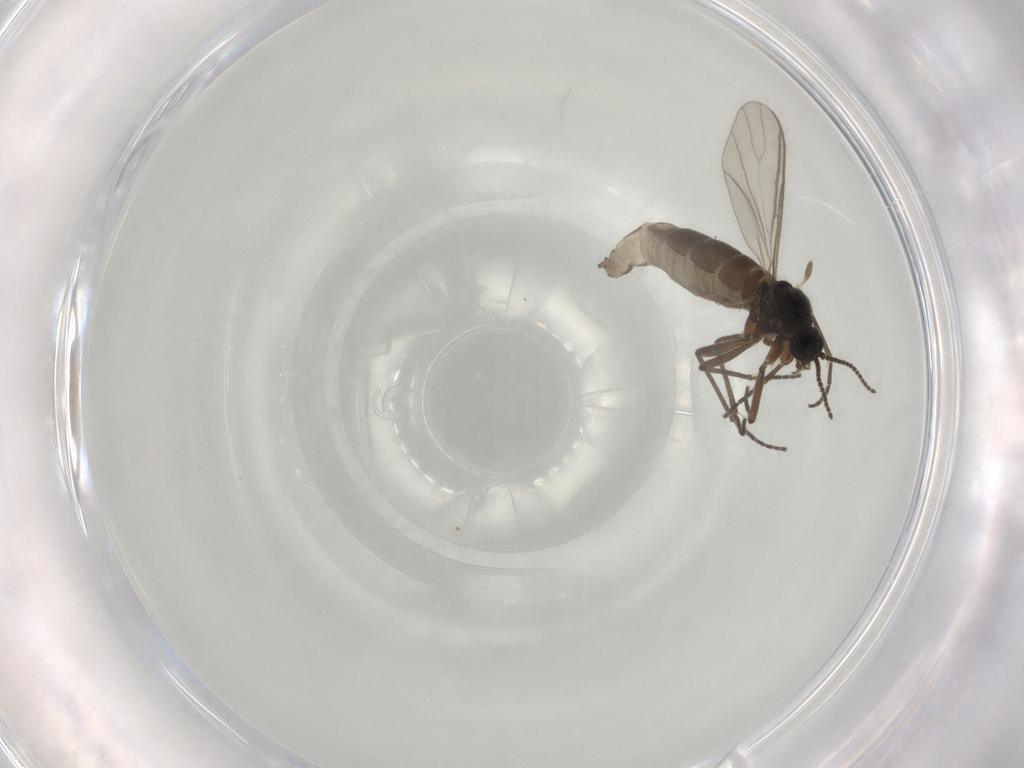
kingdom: Animalia
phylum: Arthropoda
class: Insecta
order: Diptera
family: Sciaridae
